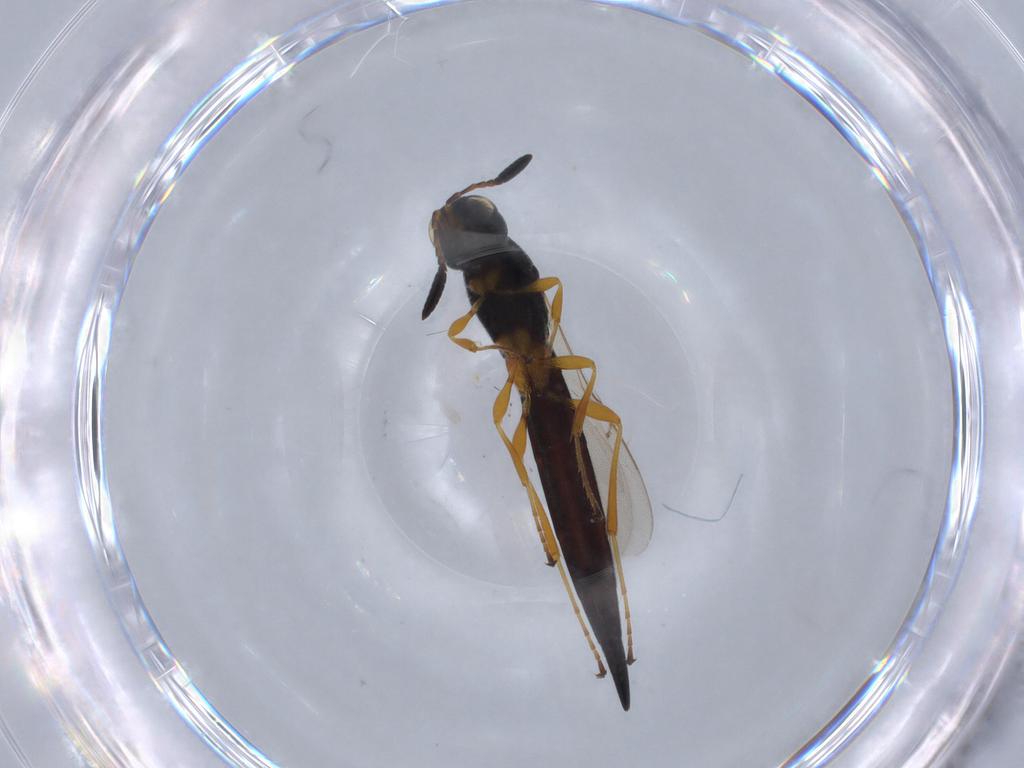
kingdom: Animalia
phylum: Arthropoda
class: Insecta
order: Hymenoptera
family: Scelionidae
